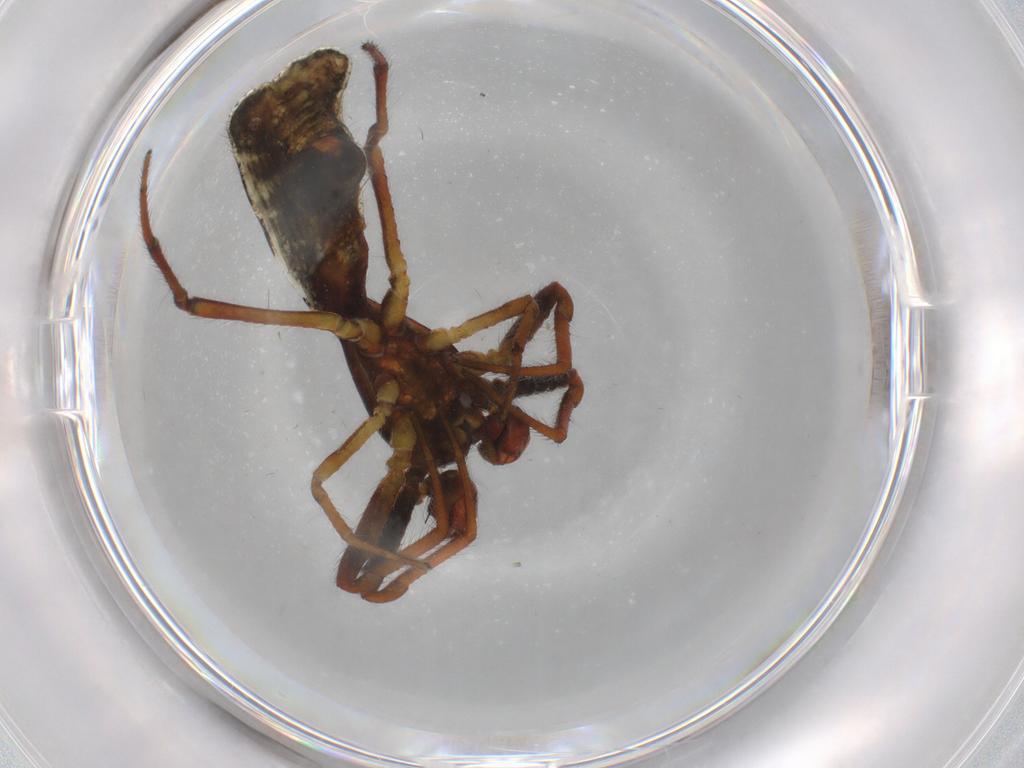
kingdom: Animalia
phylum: Arthropoda
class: Arachnida
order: Araneae
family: Araneidae
